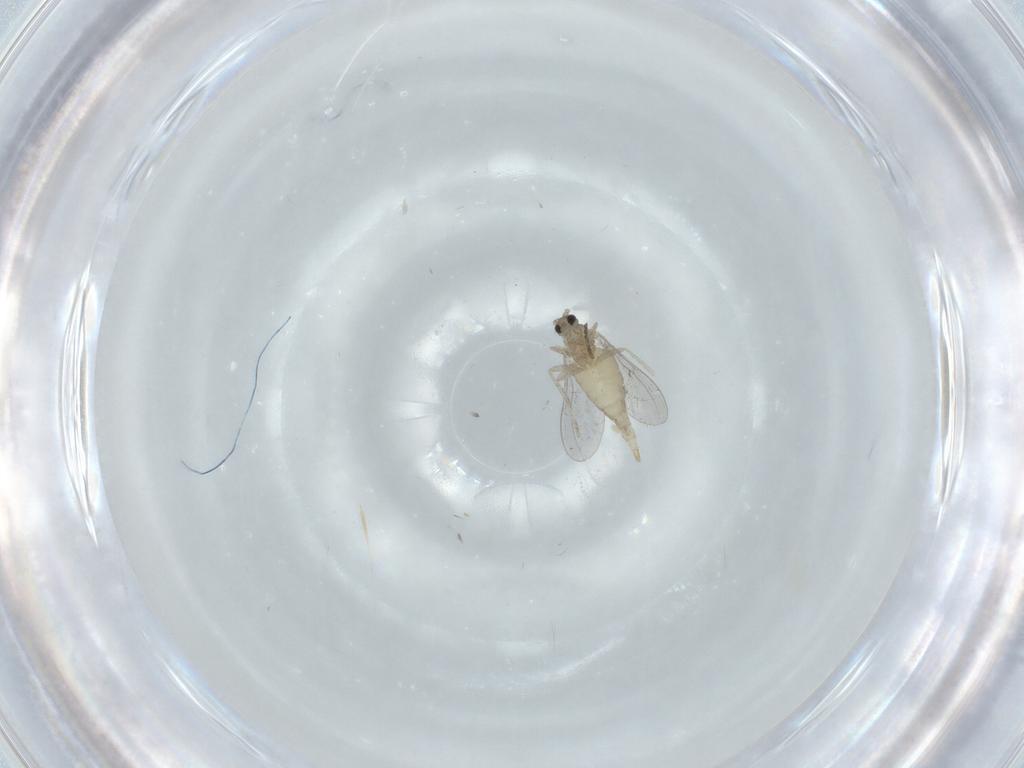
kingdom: Animalia
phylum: Arthropoda
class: Insecta
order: Diptera
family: Cecidomyiidae
